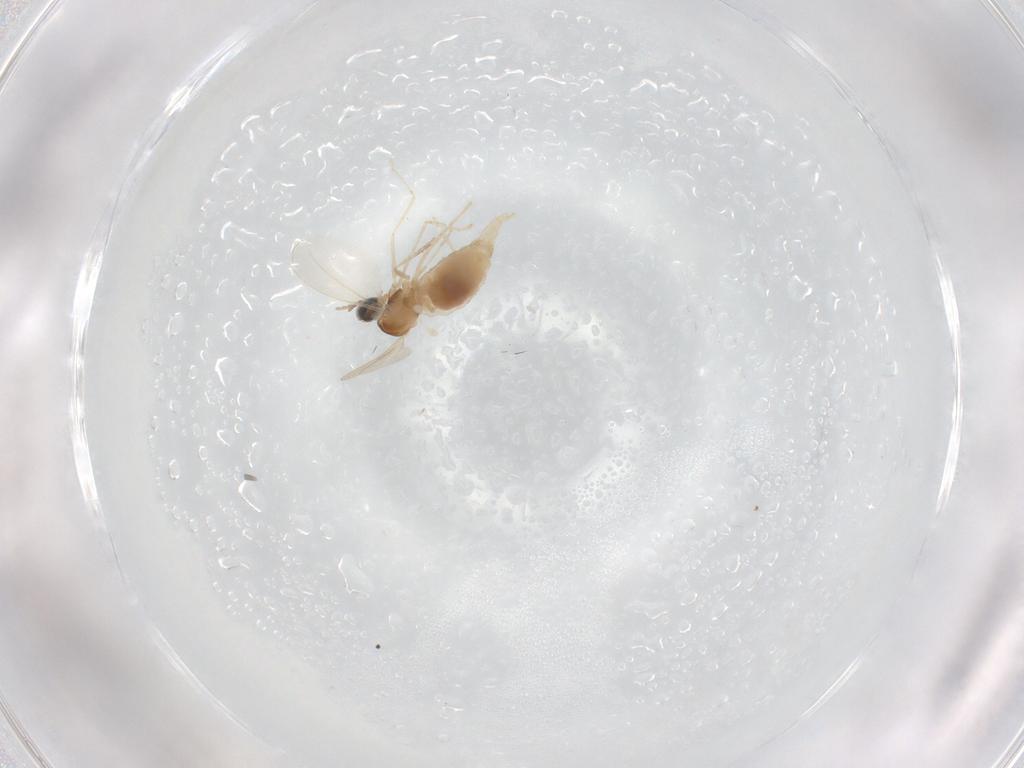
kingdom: Animalia
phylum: Arthropoda
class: Insecta
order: Diptera
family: Cecidomyiidae
